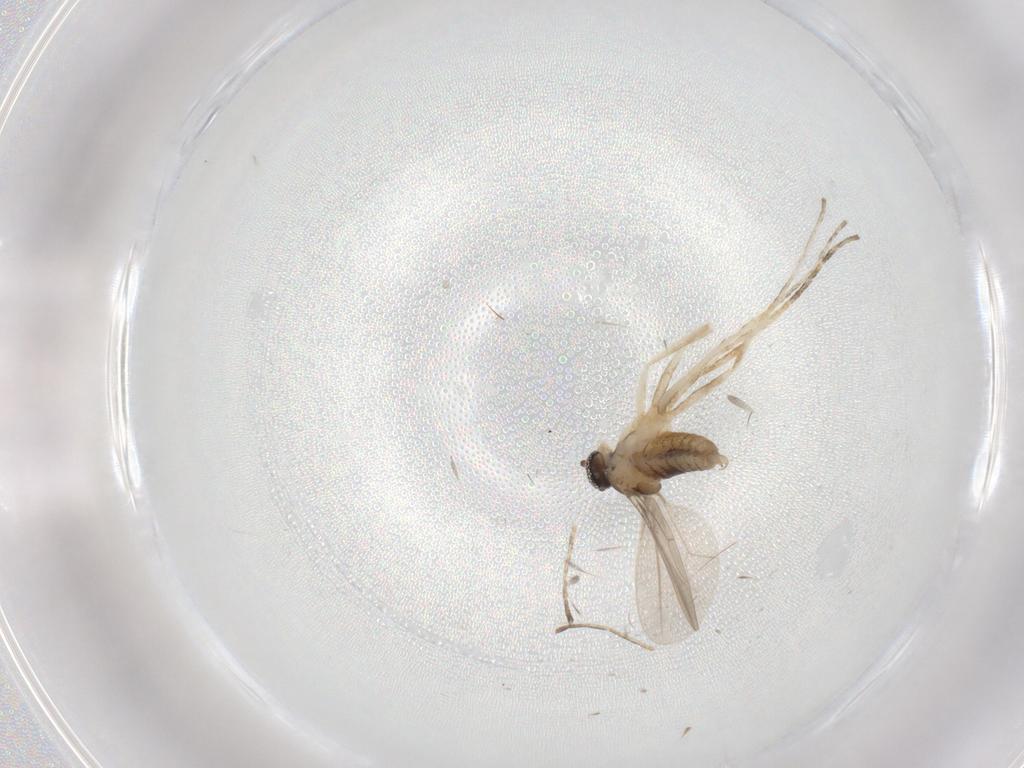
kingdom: Animalia
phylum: Arthropoda
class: Insecta
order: Diptera
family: Sciaridae
